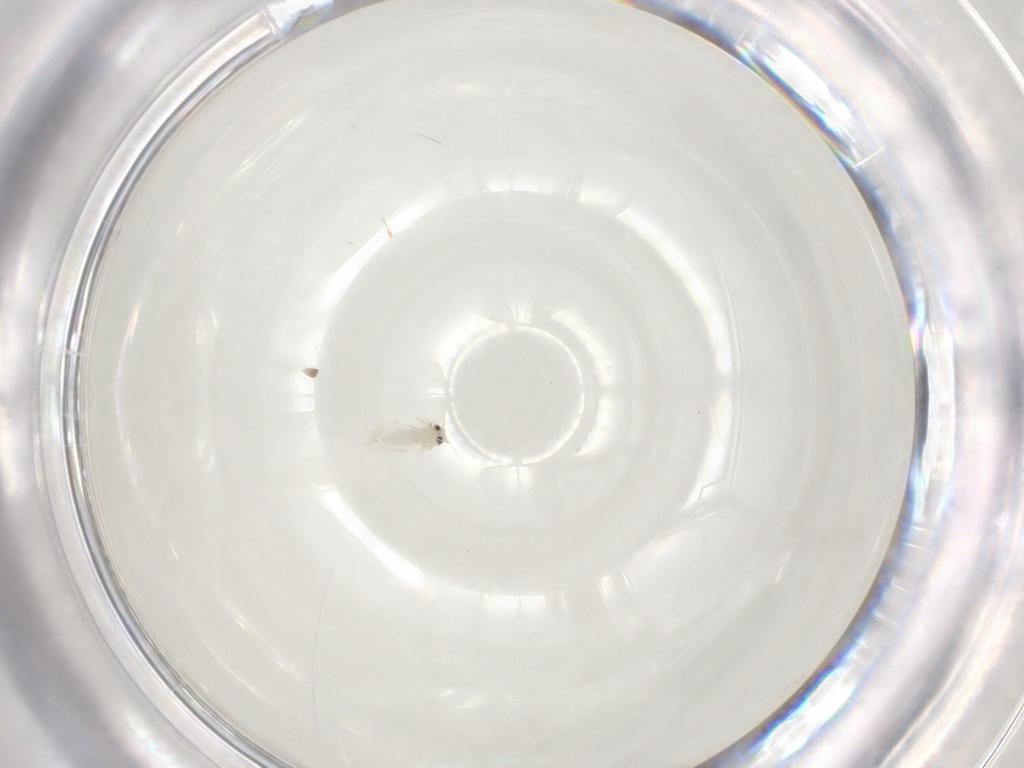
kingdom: Animalia
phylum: Arthropoda
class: Insecta
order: Hemiptera
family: Aleyrodidae
